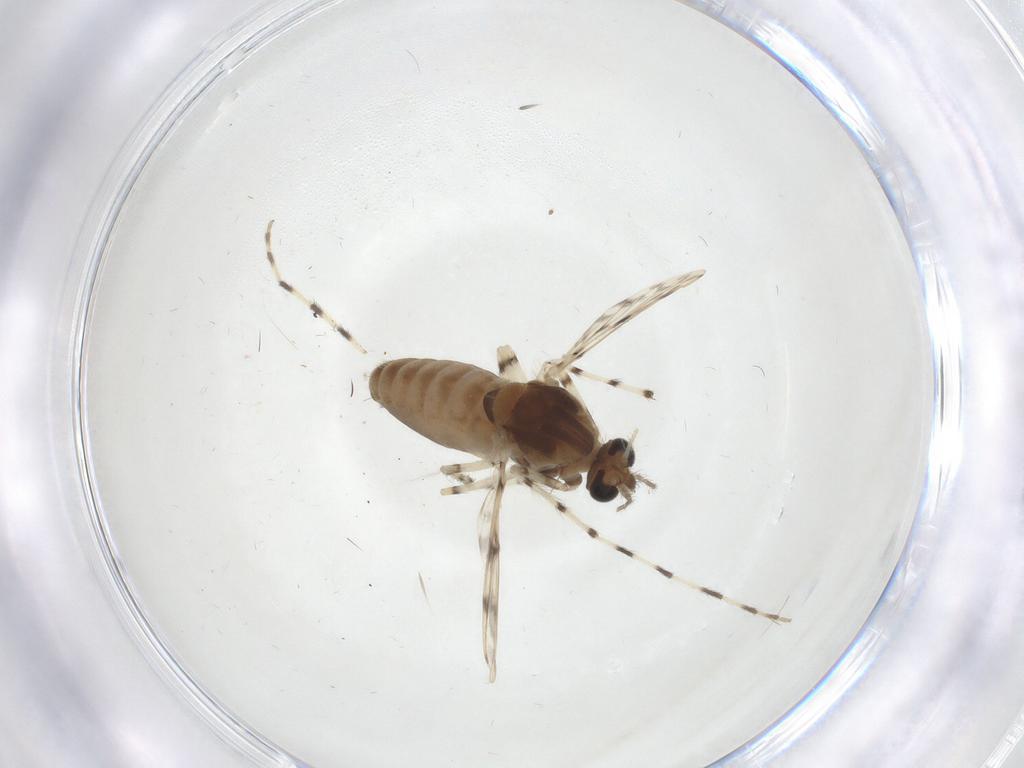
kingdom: Animalia
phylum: Arthropoda
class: Insecta
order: Diptera
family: Chironomidae
